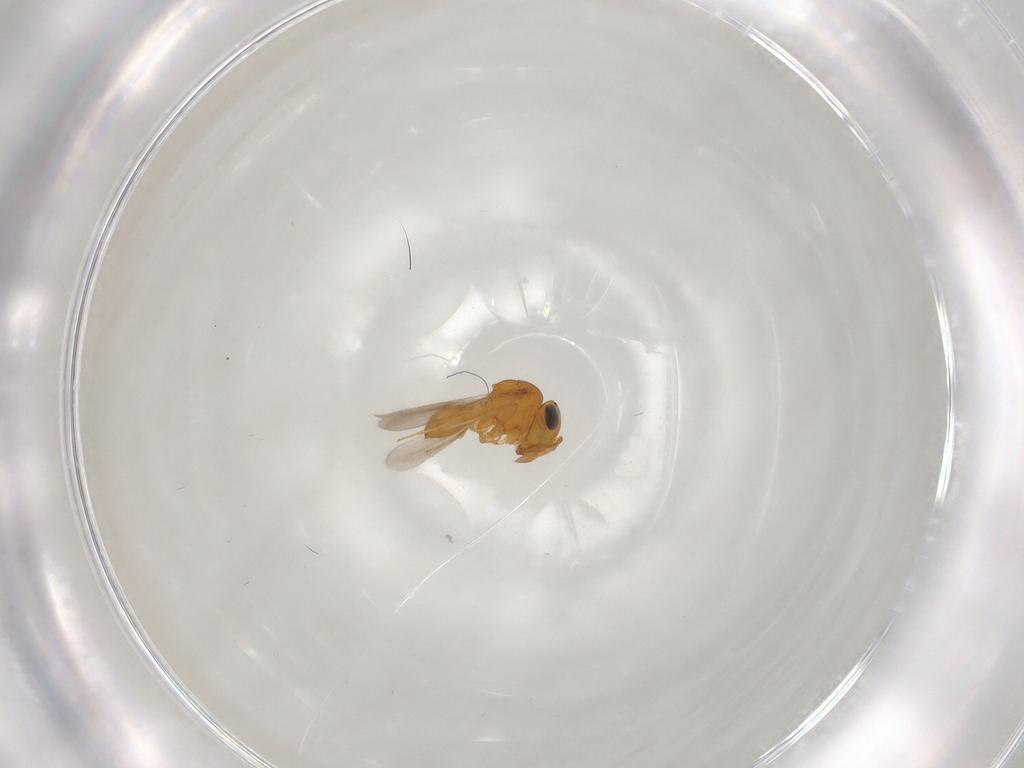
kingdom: Animalia
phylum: Arthropoda
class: Insecta
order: Hymenoptera
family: Scelionidae
